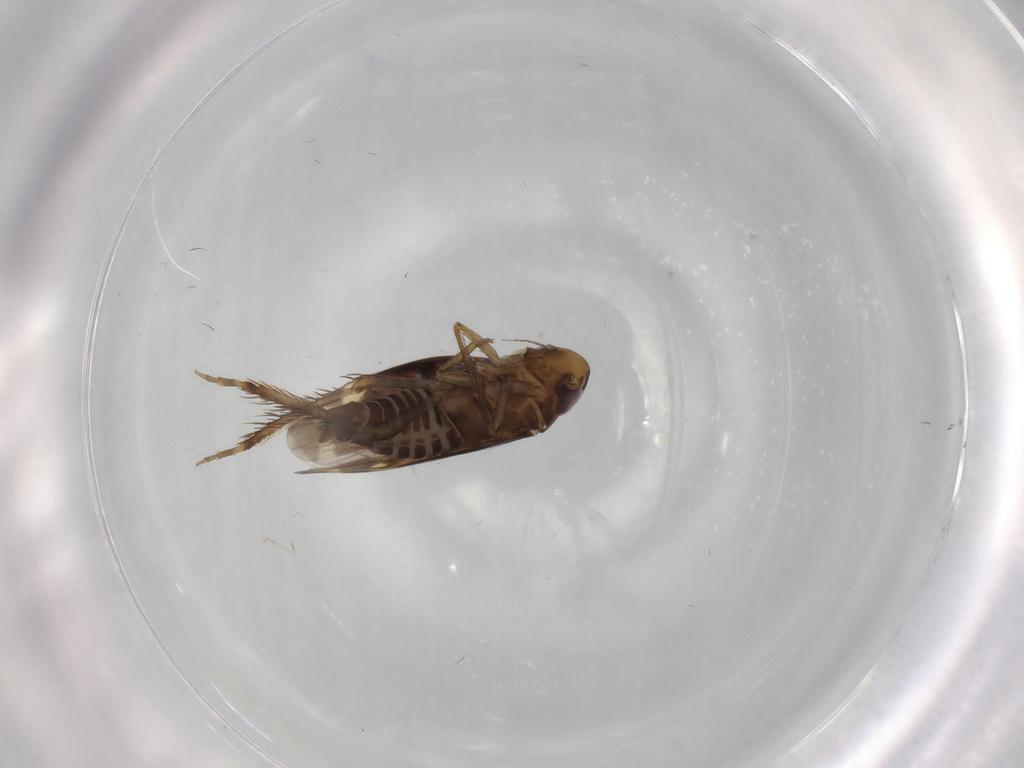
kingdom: Animalia
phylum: Arthropoda
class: Insecta
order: Hemiptera
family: Cicadellidae
